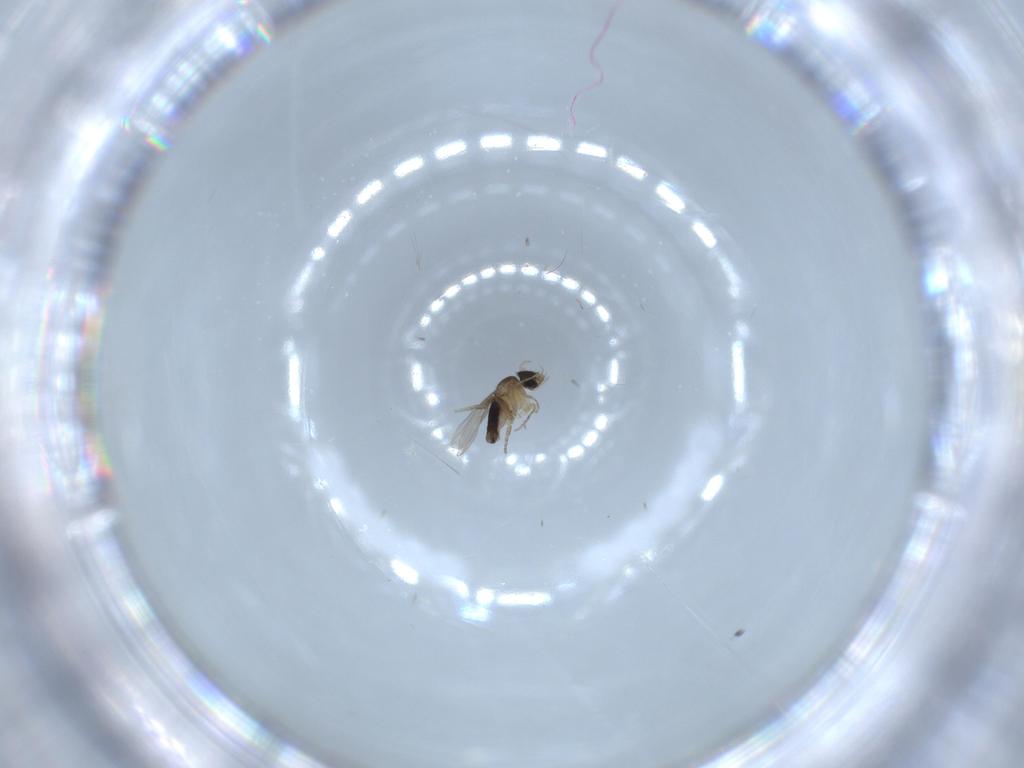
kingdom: Animalia
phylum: Arthropoda
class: Insecta
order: Diptera
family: Phoridae
